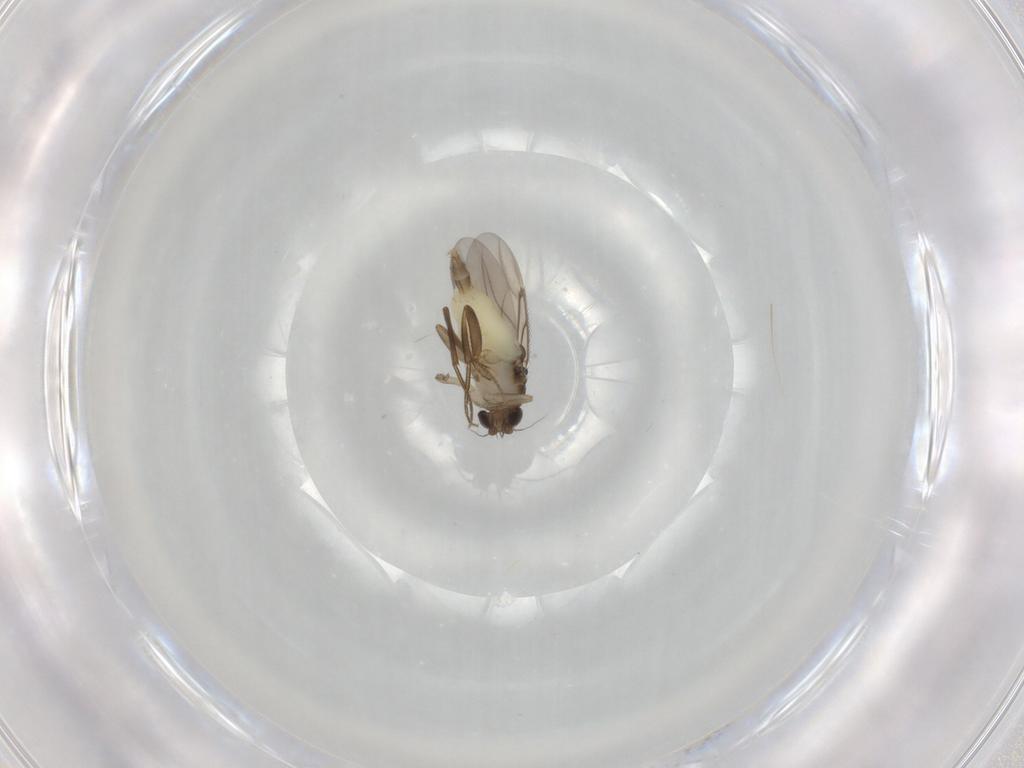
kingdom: Animalia
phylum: Arthropoda
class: Insecta
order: Diptera
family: Phoridae
